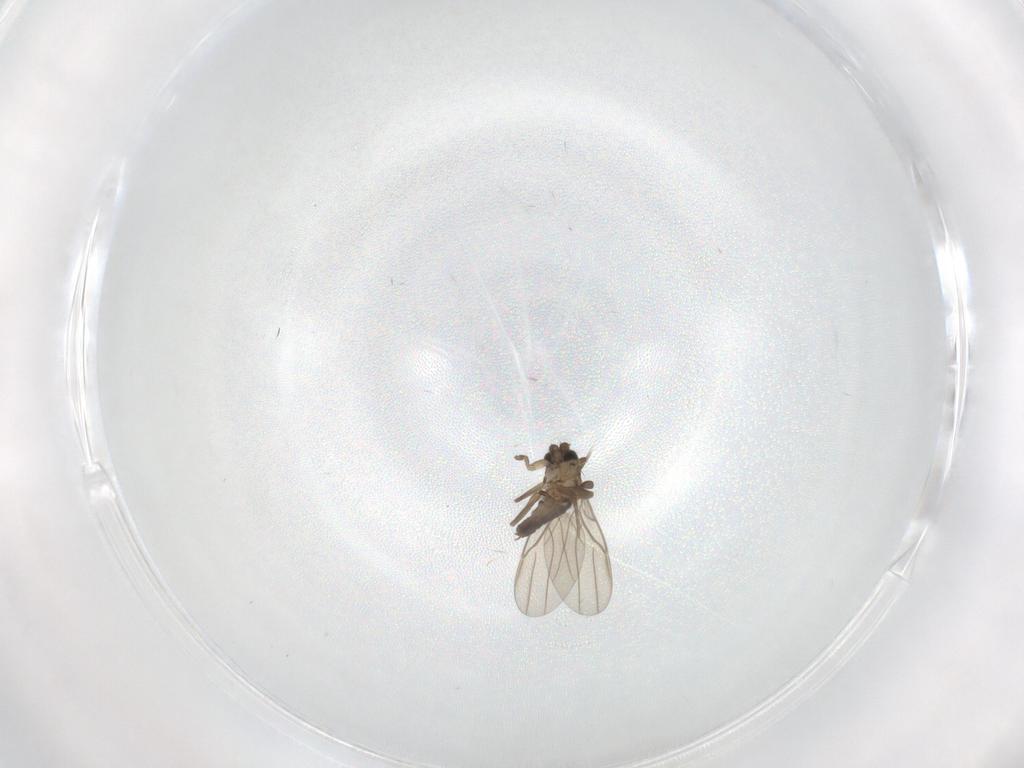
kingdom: Animalia
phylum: Arthropoda
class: Insecta
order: Diptera
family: Phoridae
